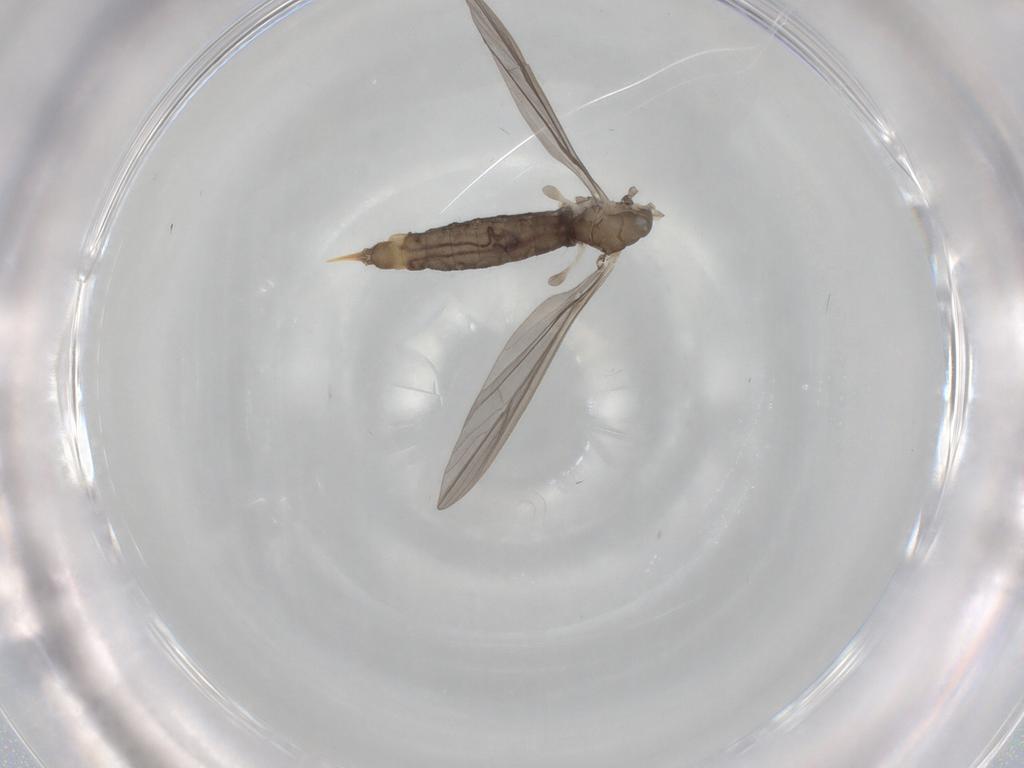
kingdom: Animalia
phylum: Arthropoda
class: Insecta
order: Diptera
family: Limoniidae
